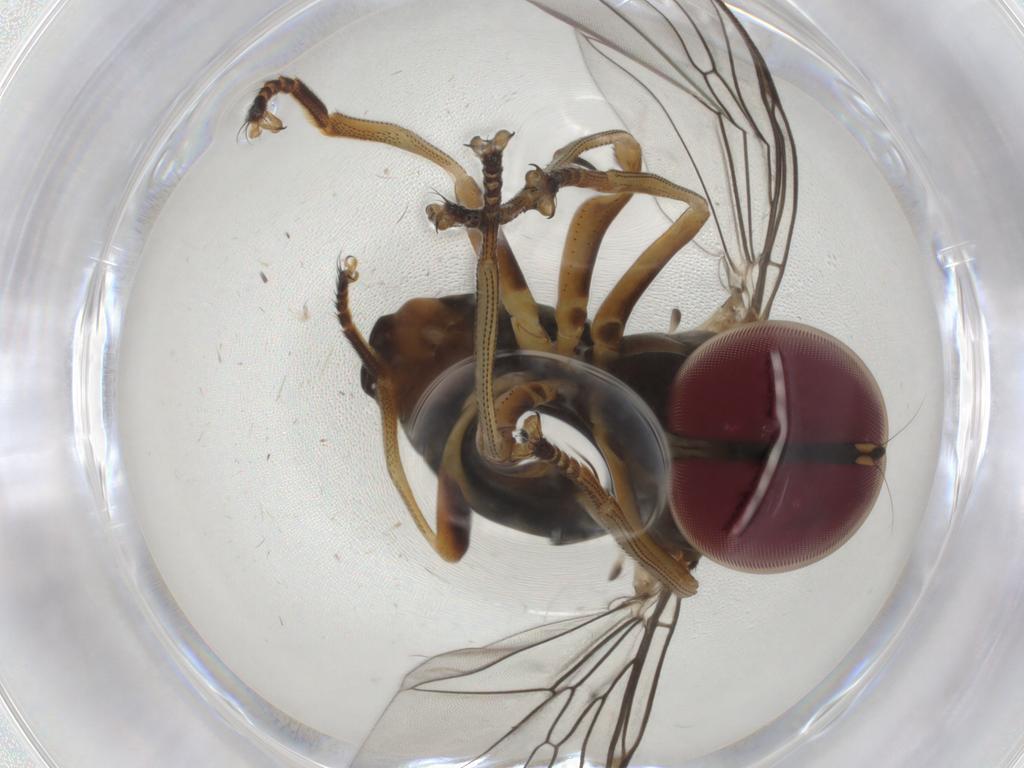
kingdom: Animalia
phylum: Arthropoda
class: Insecta
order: Diptera
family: Pipunculidae
